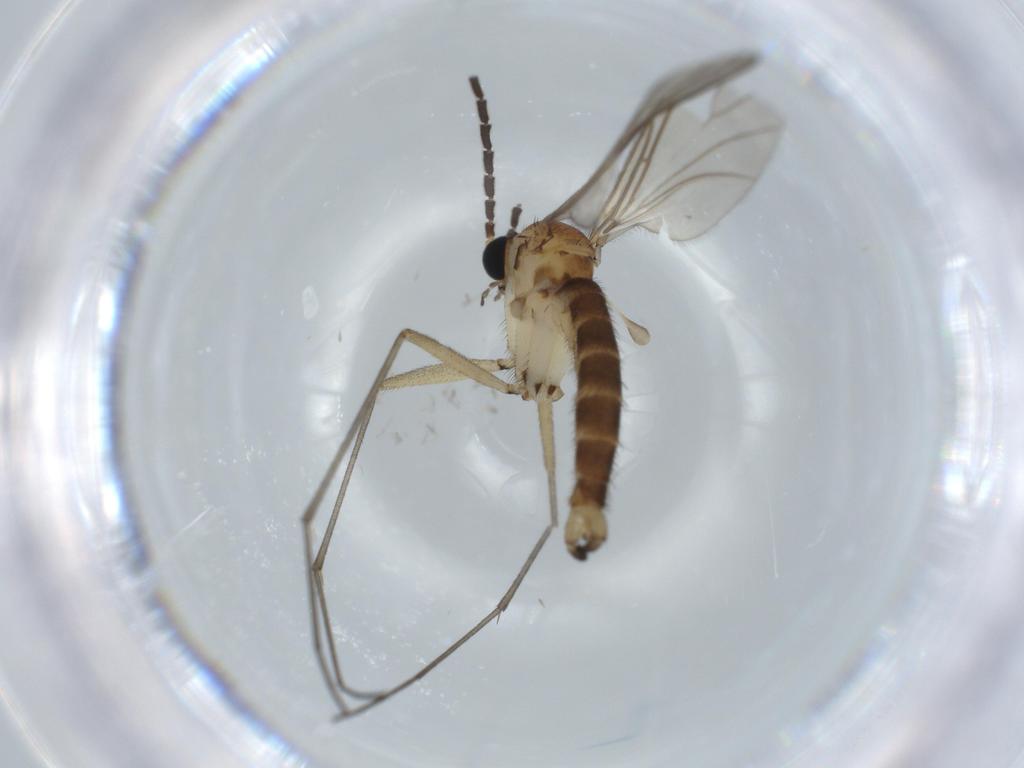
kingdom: Animalia
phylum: Arthropoda
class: Insecta
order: Diptera
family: Sciaridae
